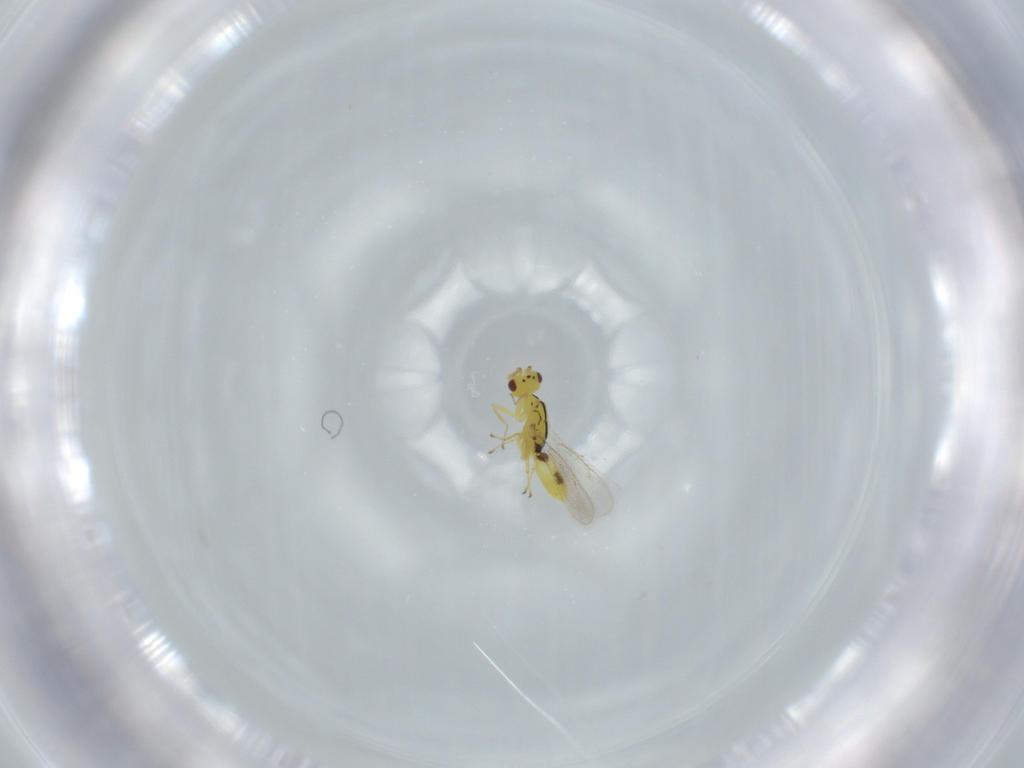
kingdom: Animalia
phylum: Arthropoda
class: Insecta
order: Hymenoptera
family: Eulophidae
